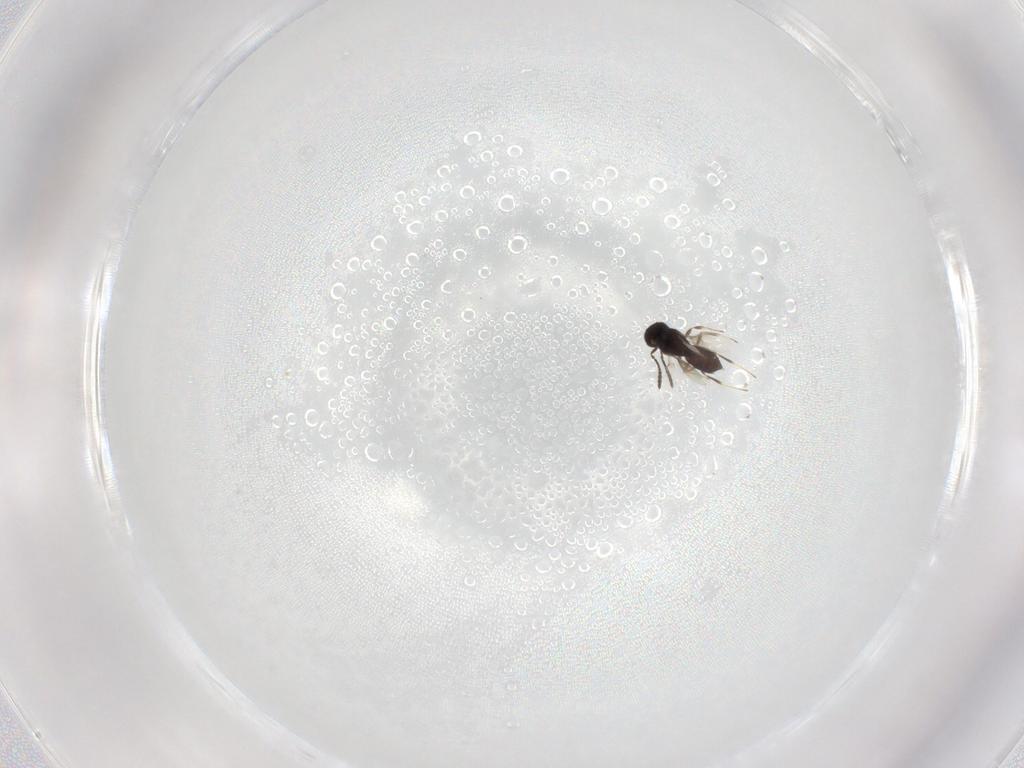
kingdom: Animalia
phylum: Arthropoda
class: Insecta
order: Hymenoptera
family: Scelionidae
